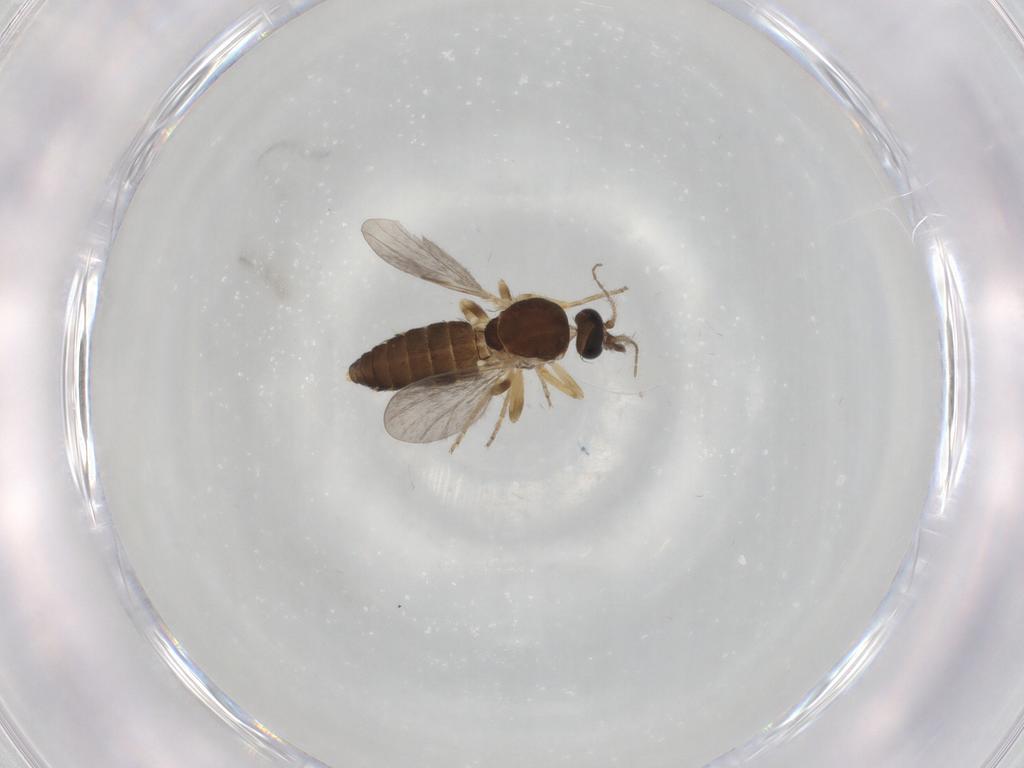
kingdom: Animalia
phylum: Arthropoda
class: Insecta
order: Diptera
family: Ceratopogonidae
